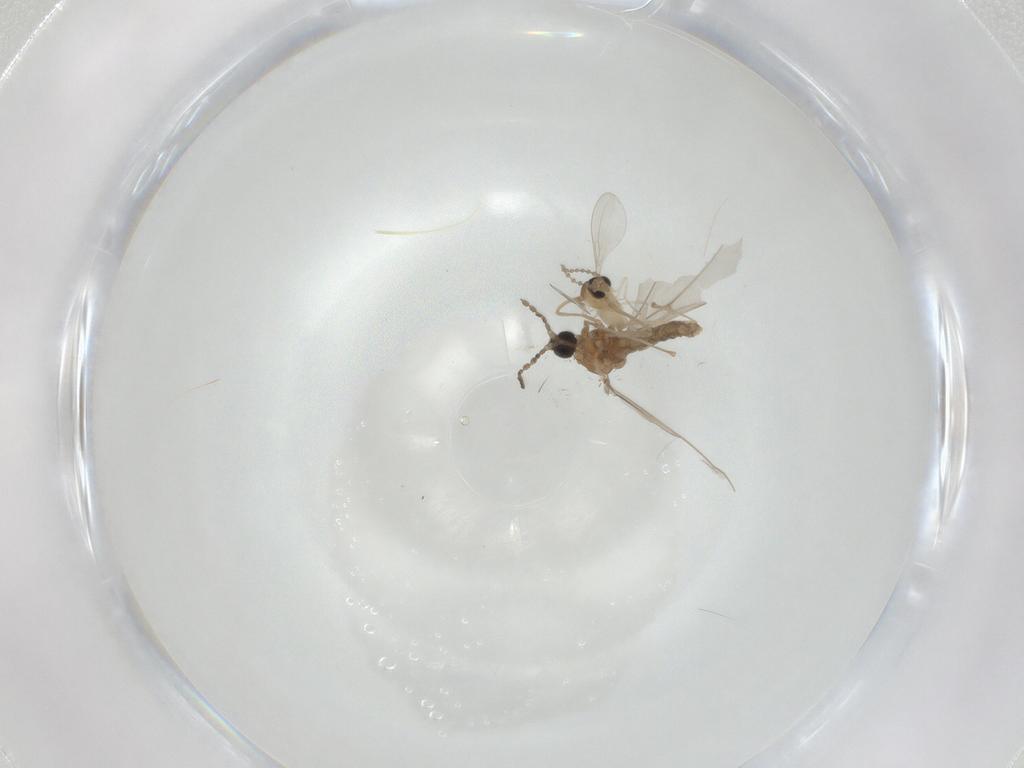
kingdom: Animalia
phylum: Arthropoda
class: Insecta
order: Diptera
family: Cecidomyiidae
